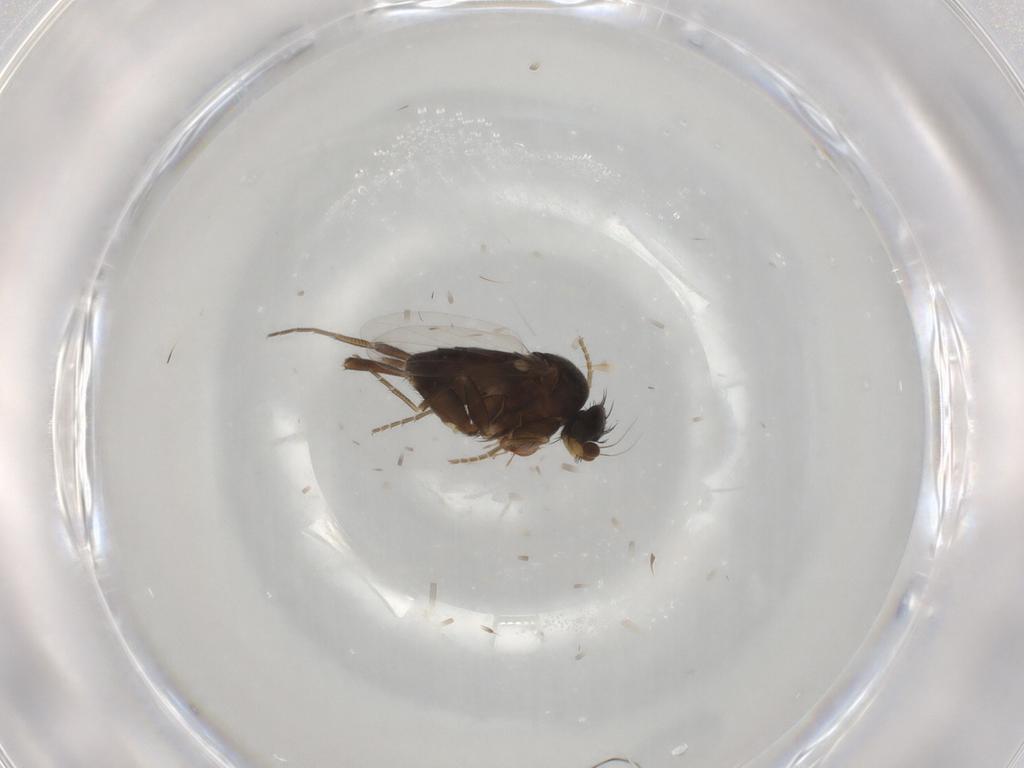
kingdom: Animalia
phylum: Arthropoda
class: Insecta
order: Diptera
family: Phoridae
